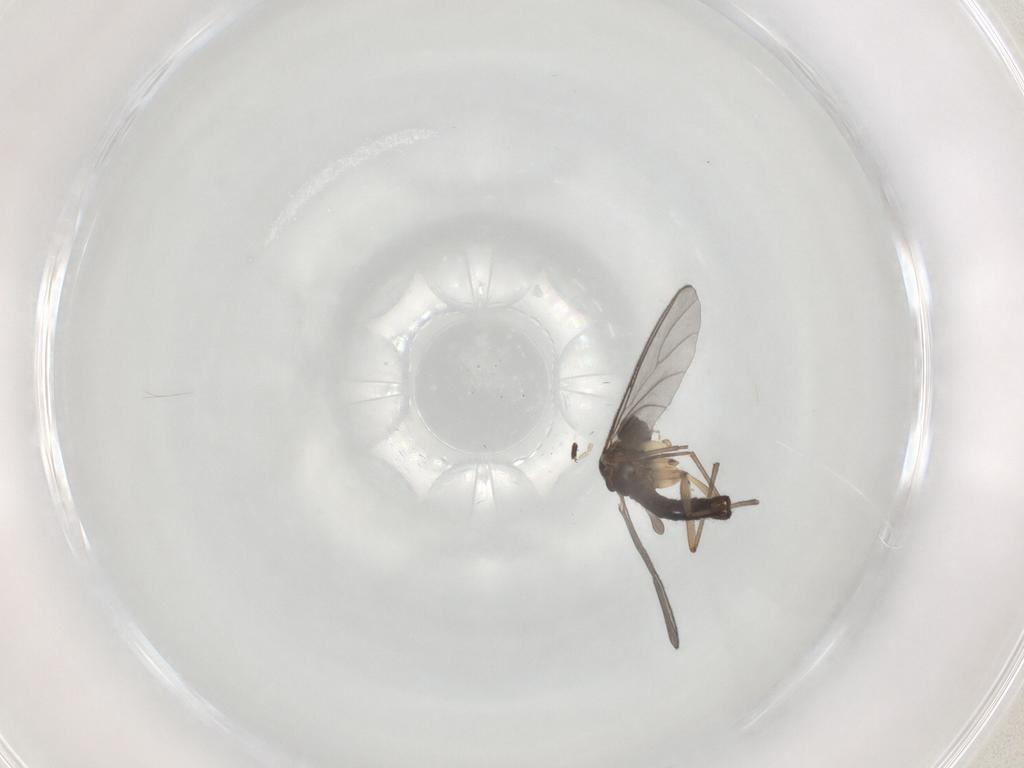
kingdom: Animalia
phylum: Arthropoda
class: Insecta
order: Diptera
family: Sciaridae
